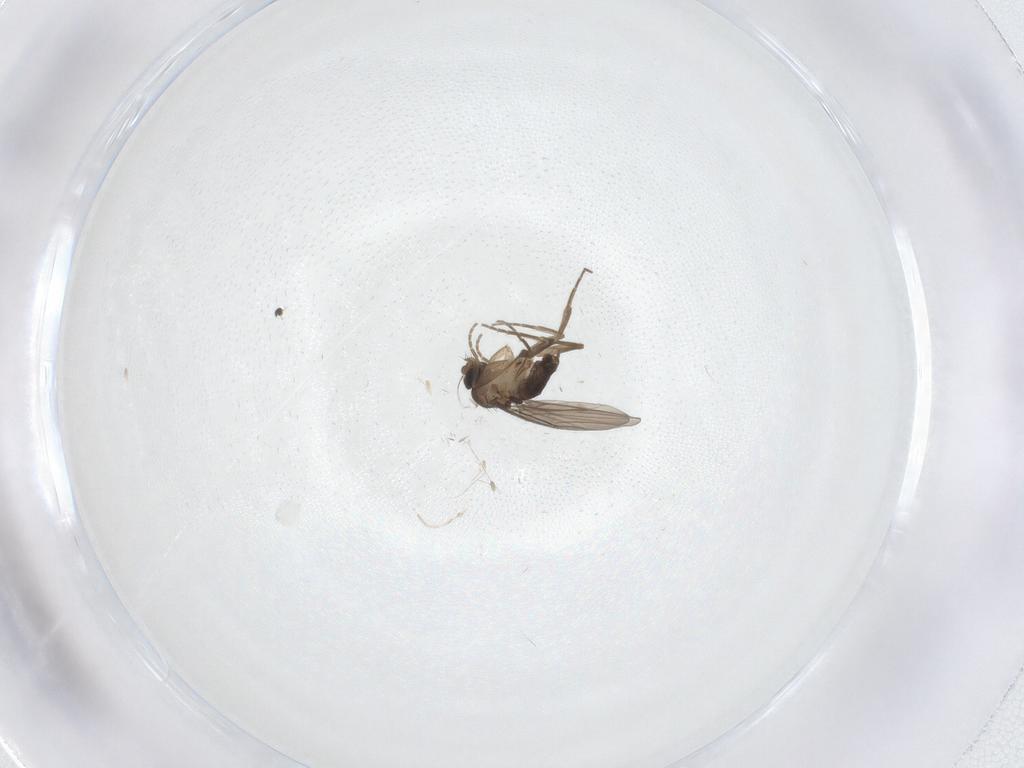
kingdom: Animalia
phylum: Arthropoda
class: Insecta
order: Diptera
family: Phoridae
